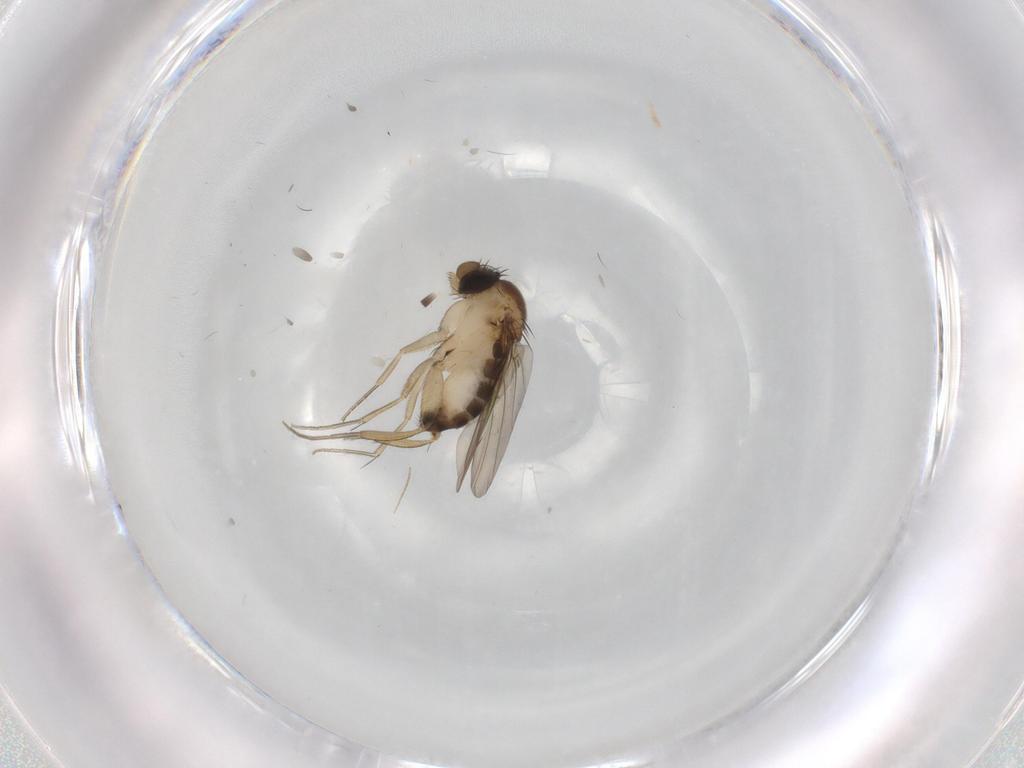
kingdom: Animalia
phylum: Arthropoda
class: Insecta
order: Diptera
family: Phoridae
